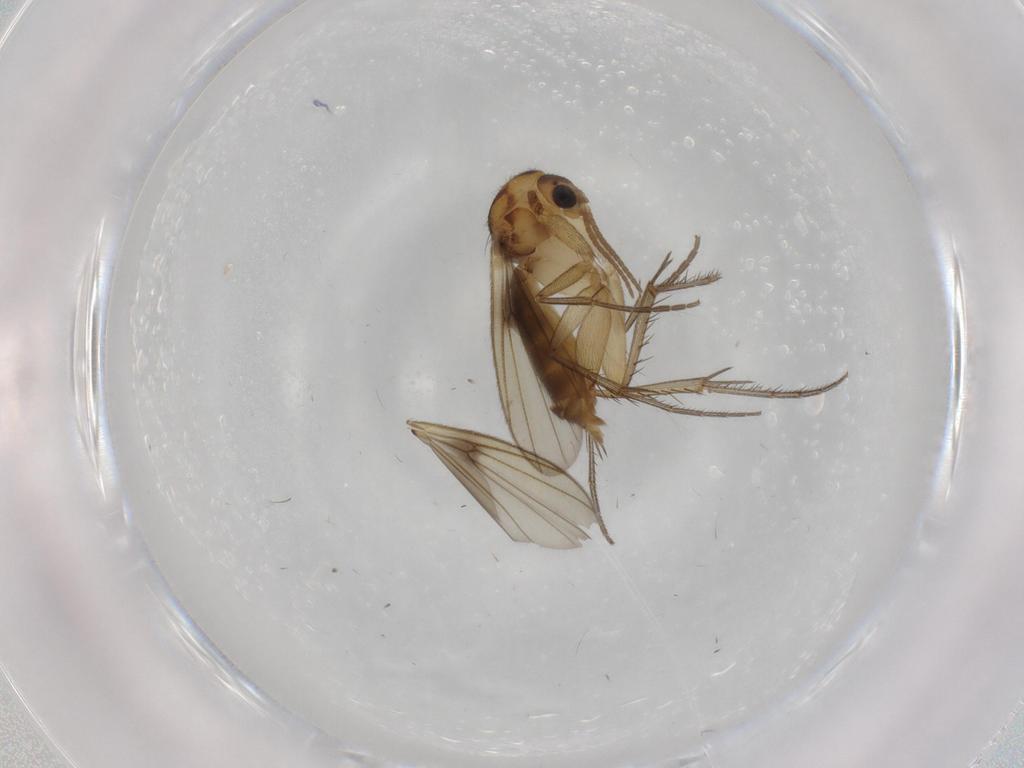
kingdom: Animalia
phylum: Arthropoda
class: Insecta
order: Diptera
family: Mycetophilidae
